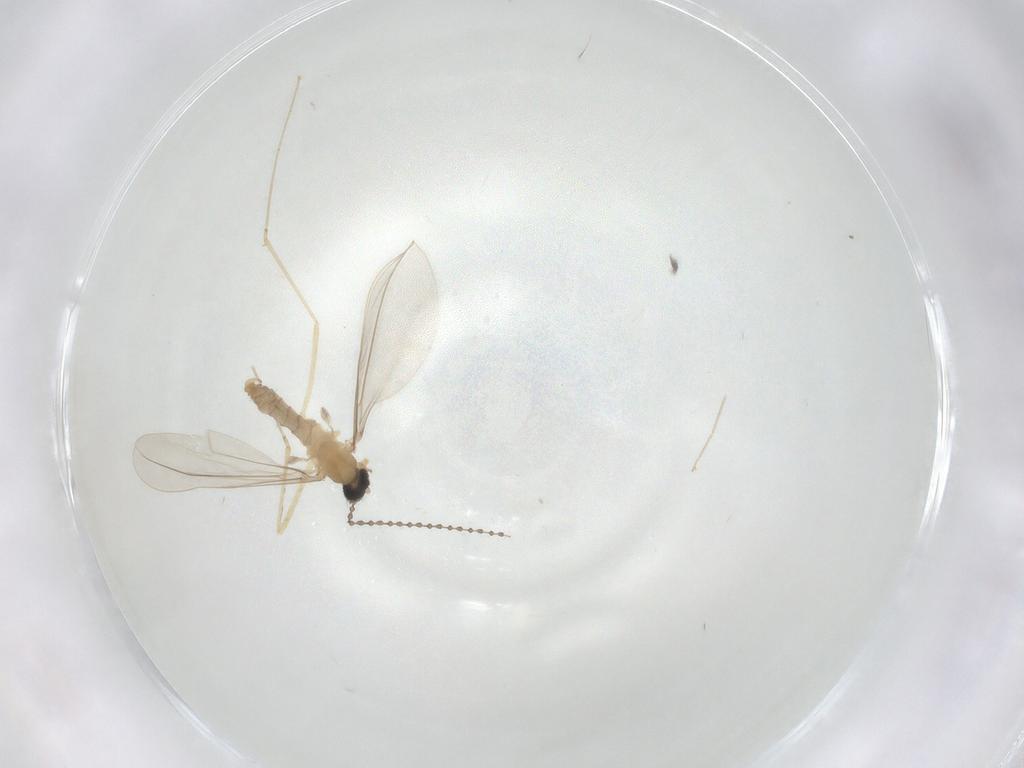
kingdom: Animalia
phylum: Arthropoda
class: Insecta
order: Diptera
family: Cecidomyiidae
